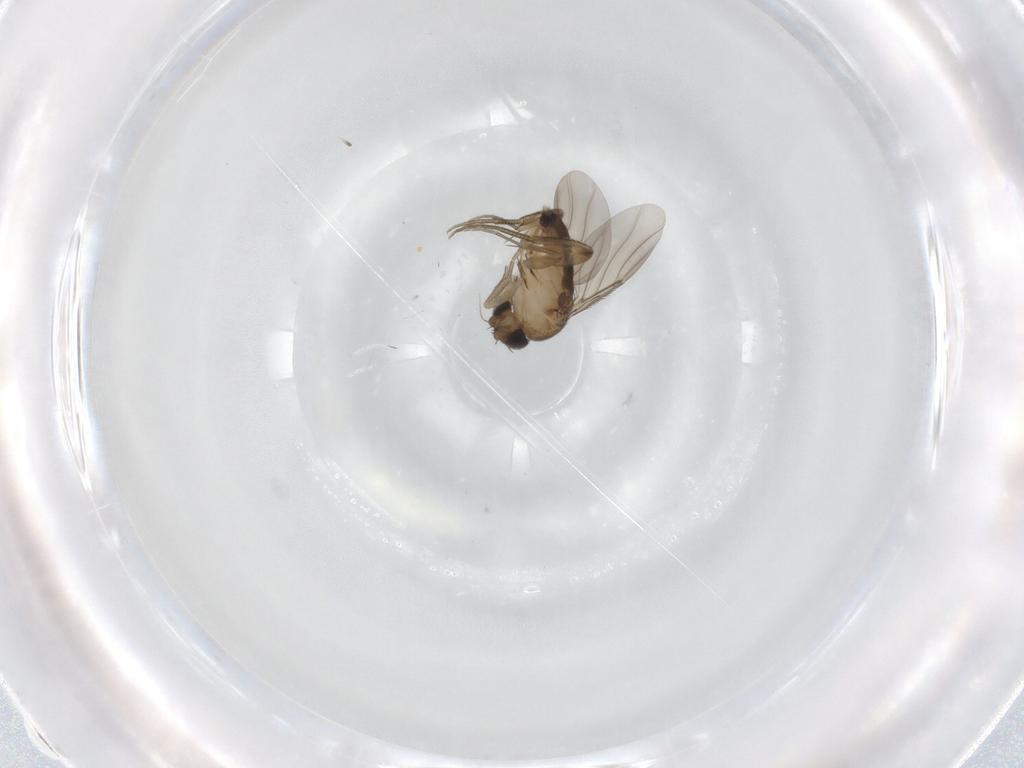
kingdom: Animalia
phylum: Arthropoda
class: Insecta
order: Diptera
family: Phoridae
